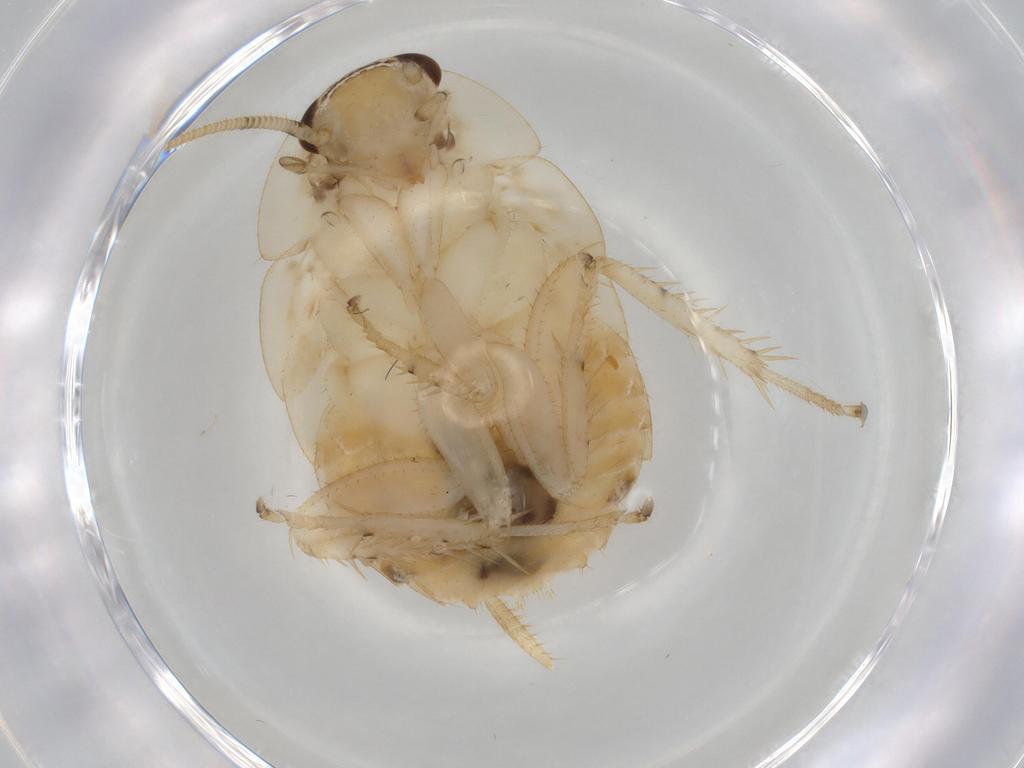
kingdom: Animalia
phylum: Arthropoda
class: Insecta
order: Blattodea
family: Ectobiidae
